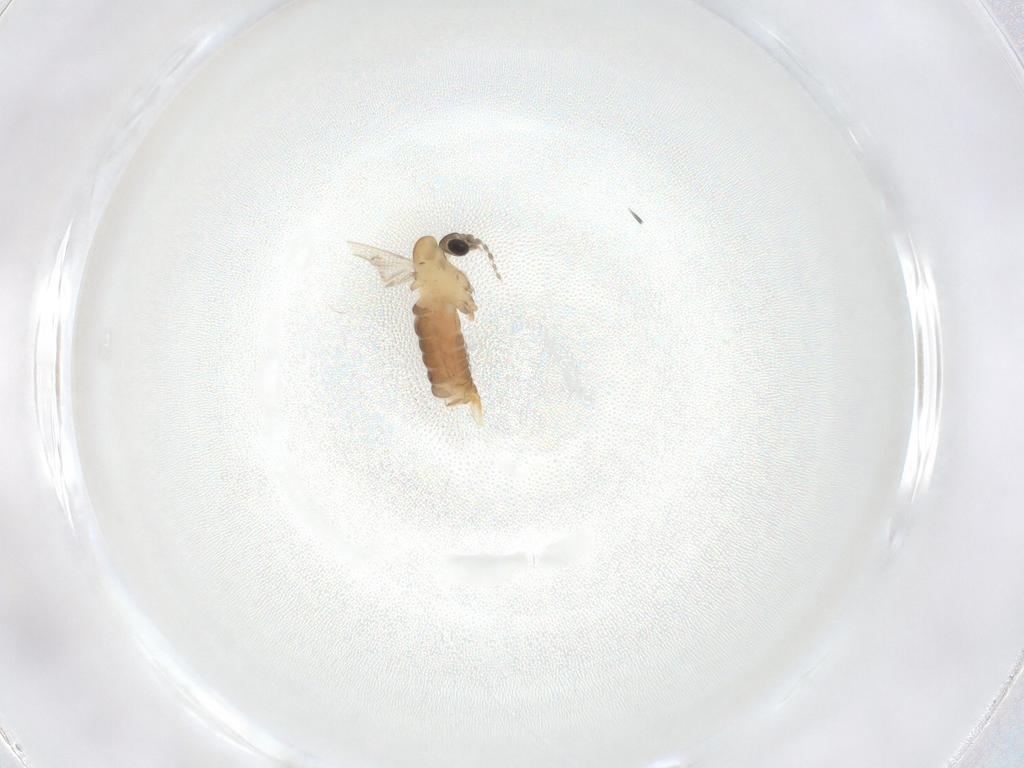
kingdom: Animalia
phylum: Arthropoda
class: Insecta
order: Diptera
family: Psychodidae
